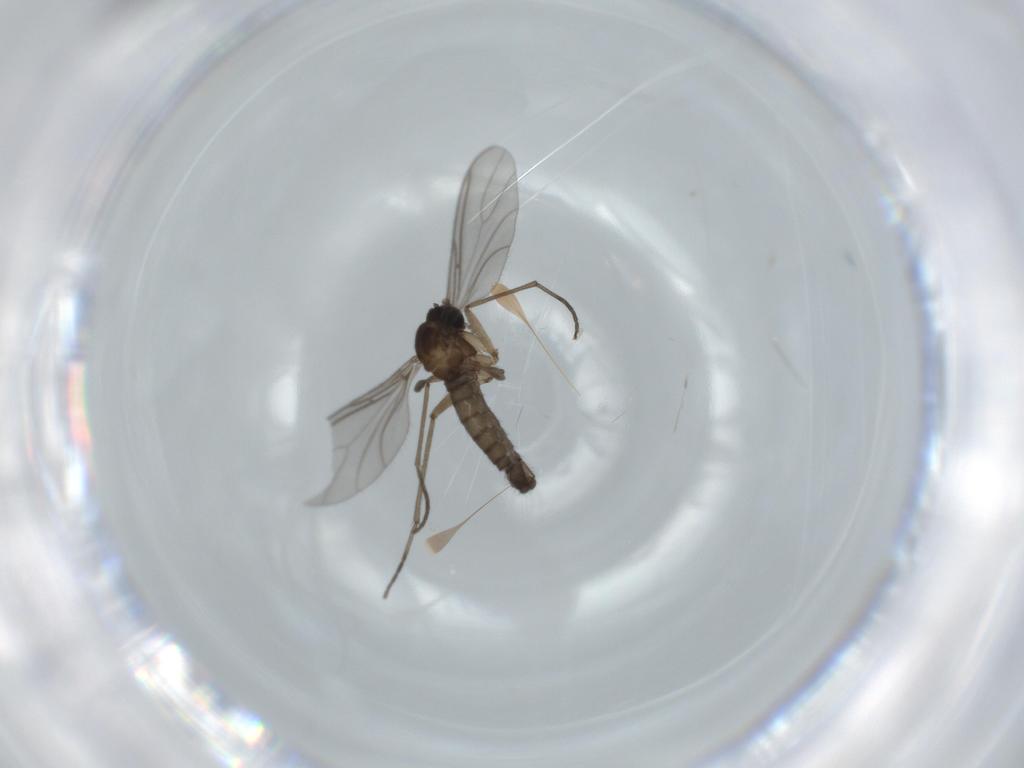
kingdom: Animalia
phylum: Arthropoda
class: Insecta
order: Diptera
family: Sciaridae
